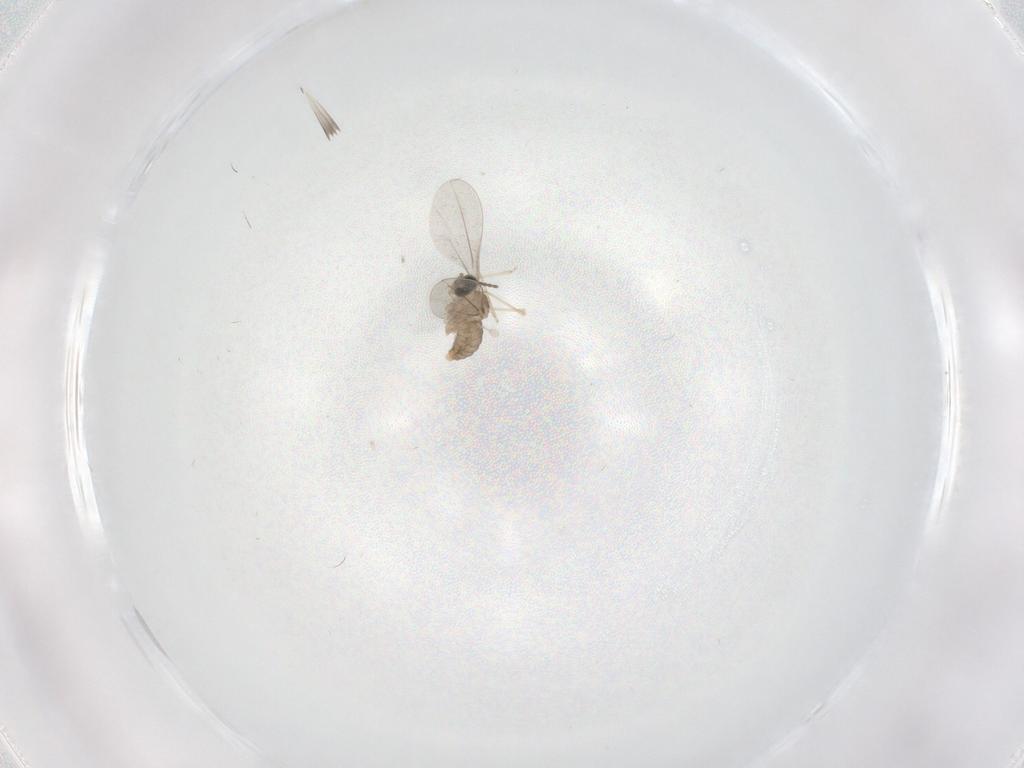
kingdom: Animalia
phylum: Arthropoda
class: Insecta
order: Diptera
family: Cecidomyiidae
